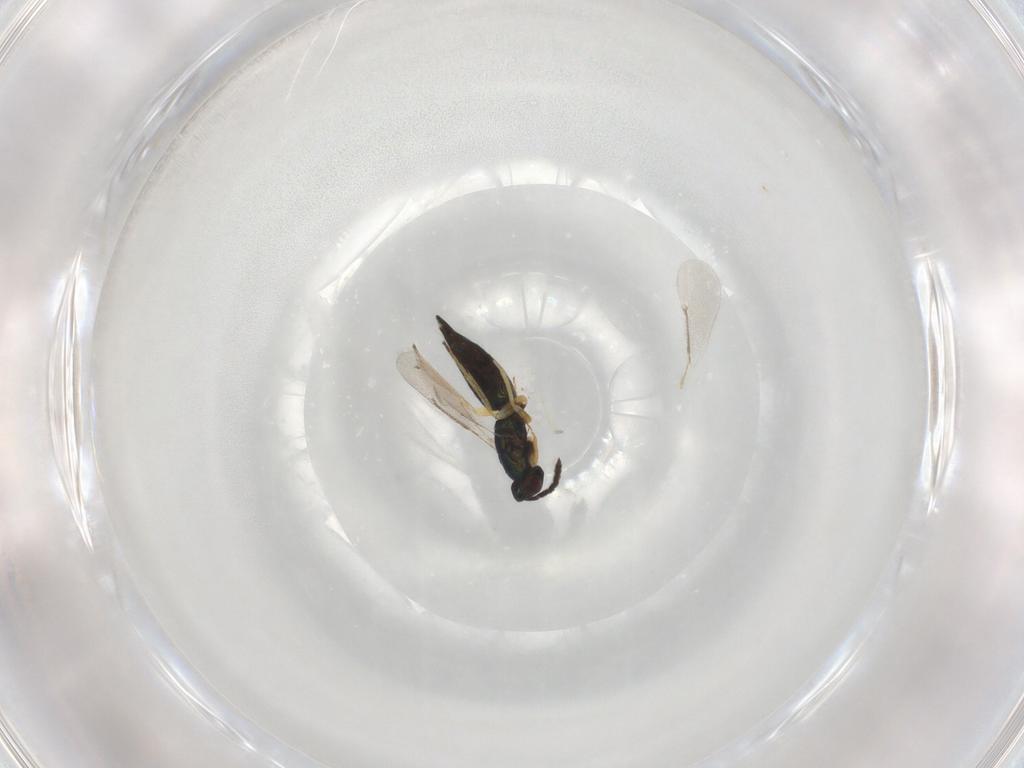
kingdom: Animalia
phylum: Arthropoda
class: Insecta
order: Hymenoptera
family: Eulophidae
